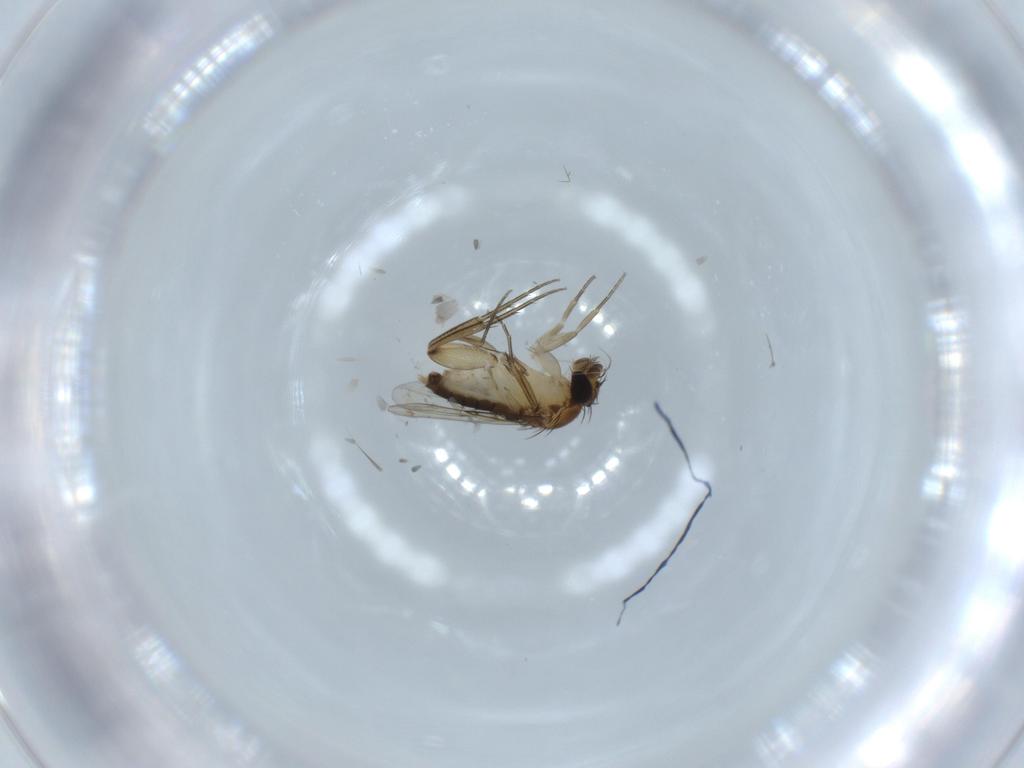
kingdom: Animalia
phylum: Arthropoda
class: Insecta
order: Diptera
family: Phoridae
